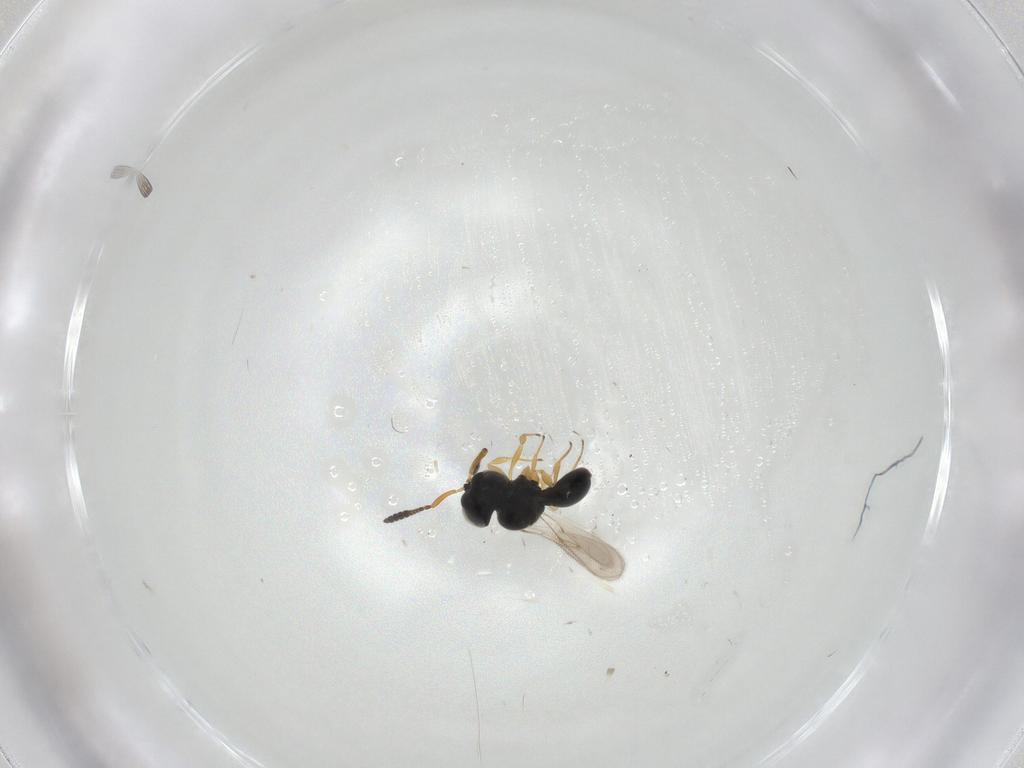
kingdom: Animalia
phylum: Arthropoda
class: Insecta
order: Hymenoptera
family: Scelionidae
